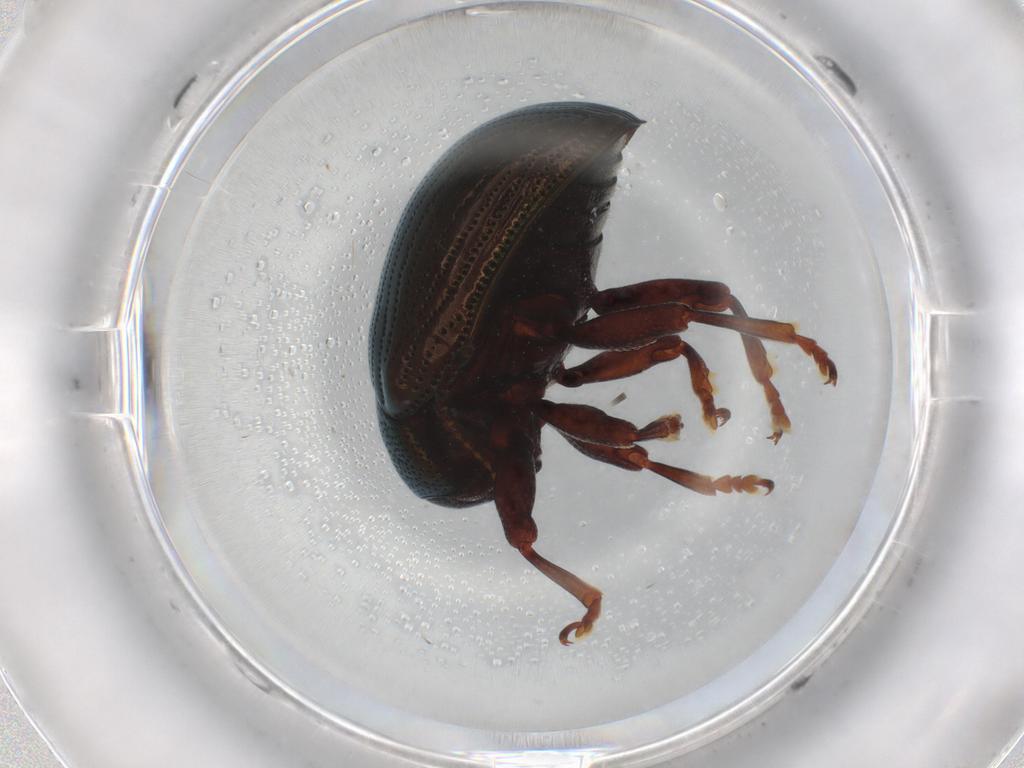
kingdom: Animalia
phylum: Arthropoda
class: Insecta
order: Coleoptera
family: Chrysomelidae
